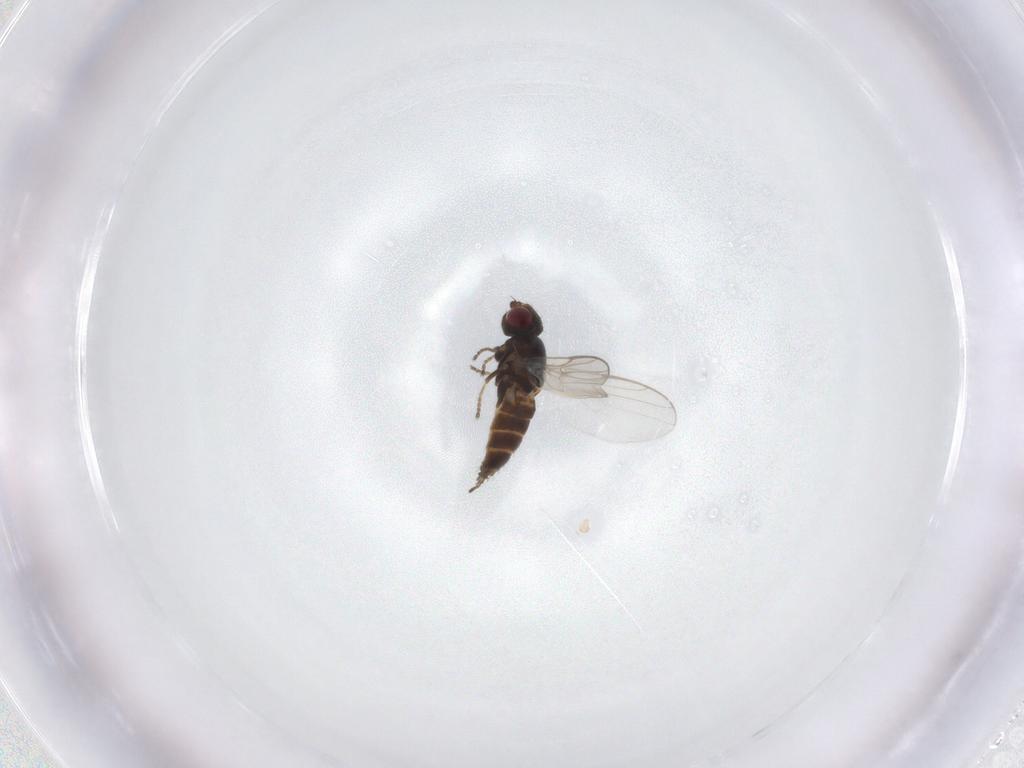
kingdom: Animalia
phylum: Arthropoda
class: Insecta
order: Diptera
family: Chloropidae
